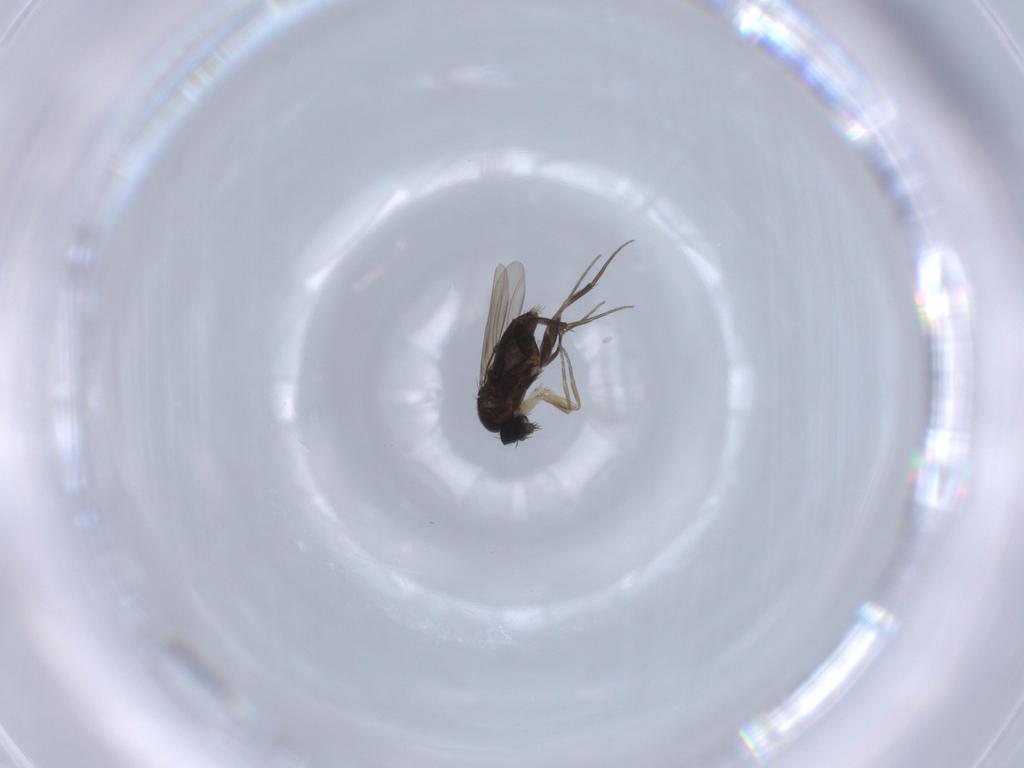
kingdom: Animalia
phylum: Arthropoda
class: Insecta
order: Diptera
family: Phoridae
